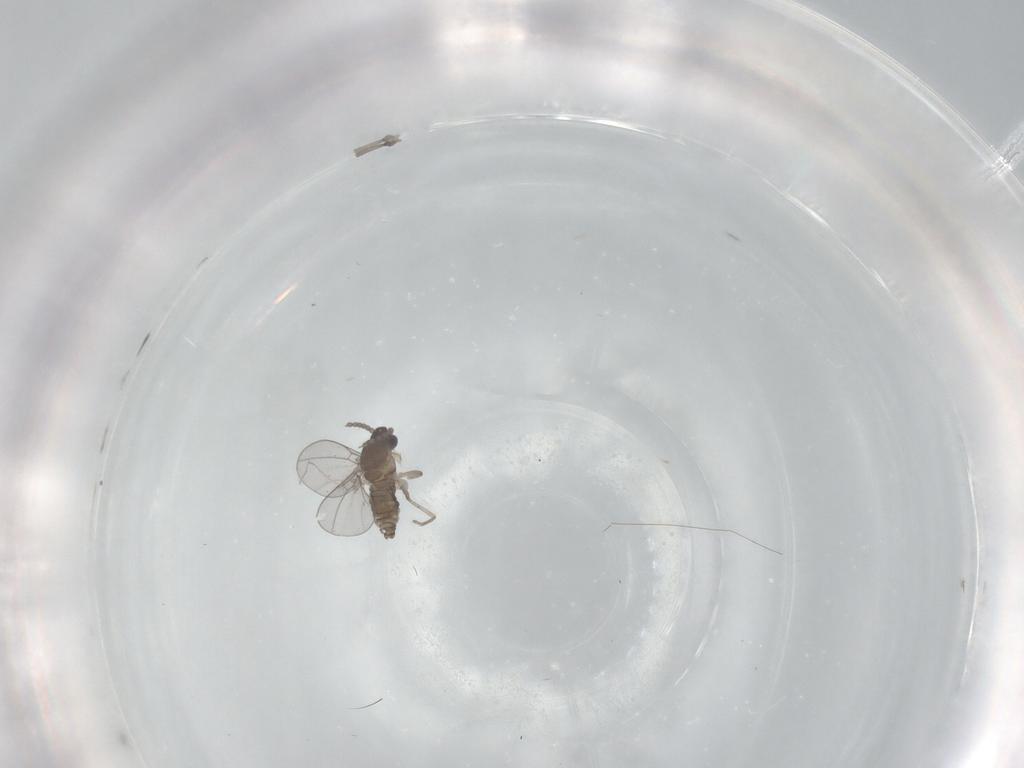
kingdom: Animalia
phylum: Arthropoda
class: Insecta
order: Diptera
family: Cecidomyiidae
